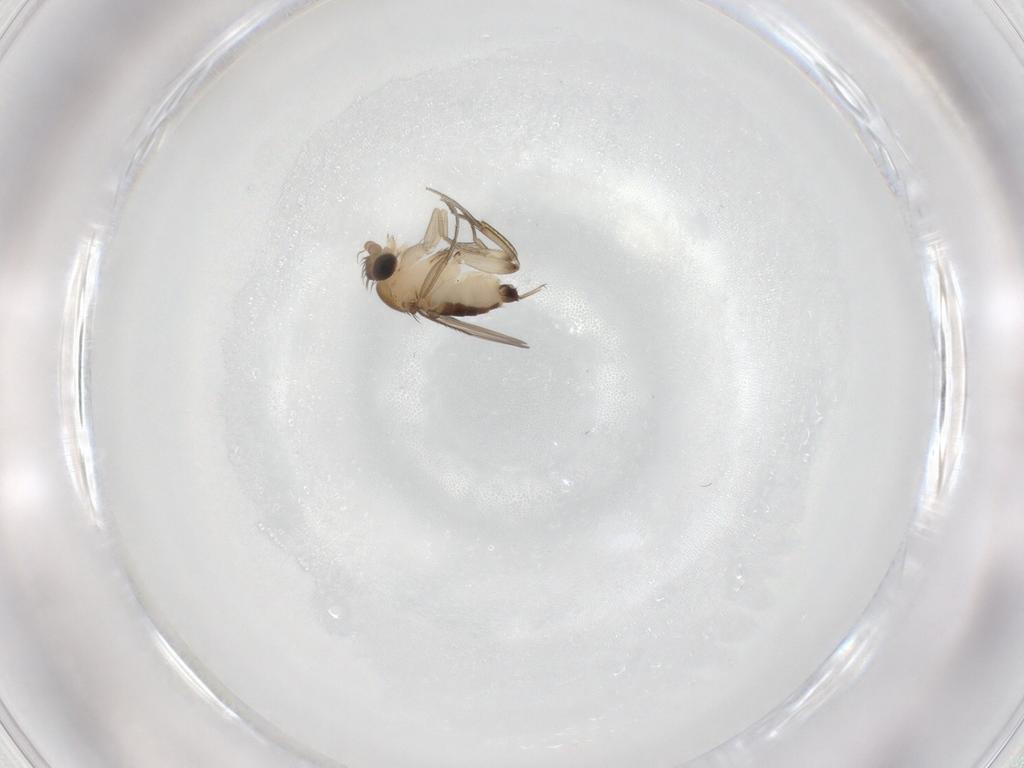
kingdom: Animalia
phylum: Arthropoda
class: Insecta
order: Diptera
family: Phoridae
